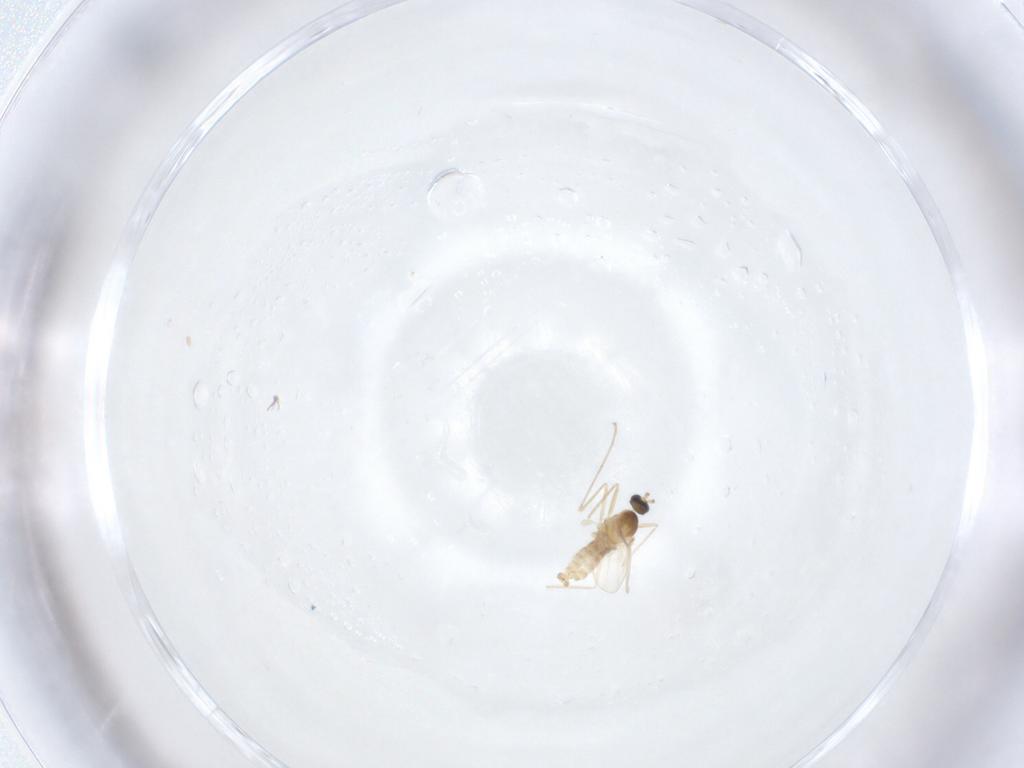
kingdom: Animalia
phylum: Arthropoda
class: Insecta
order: Diptera
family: Cecidomyiidae
